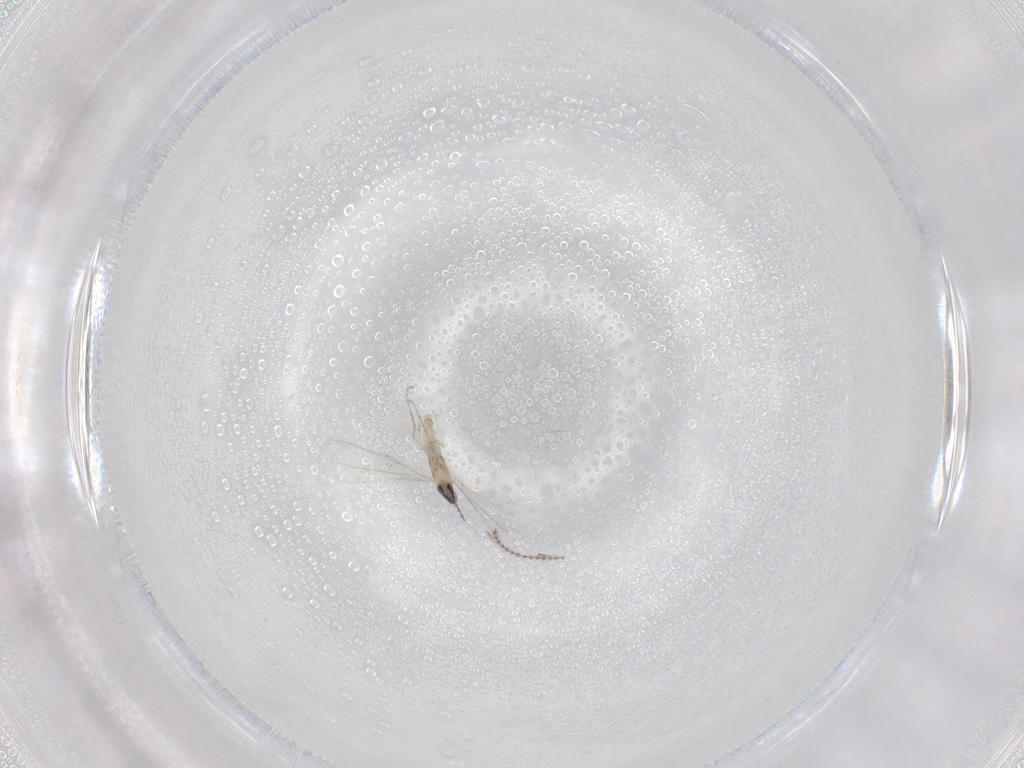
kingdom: Animalia
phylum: Arthropoda
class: Insecta
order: Diptera
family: Cecidomyiidae
